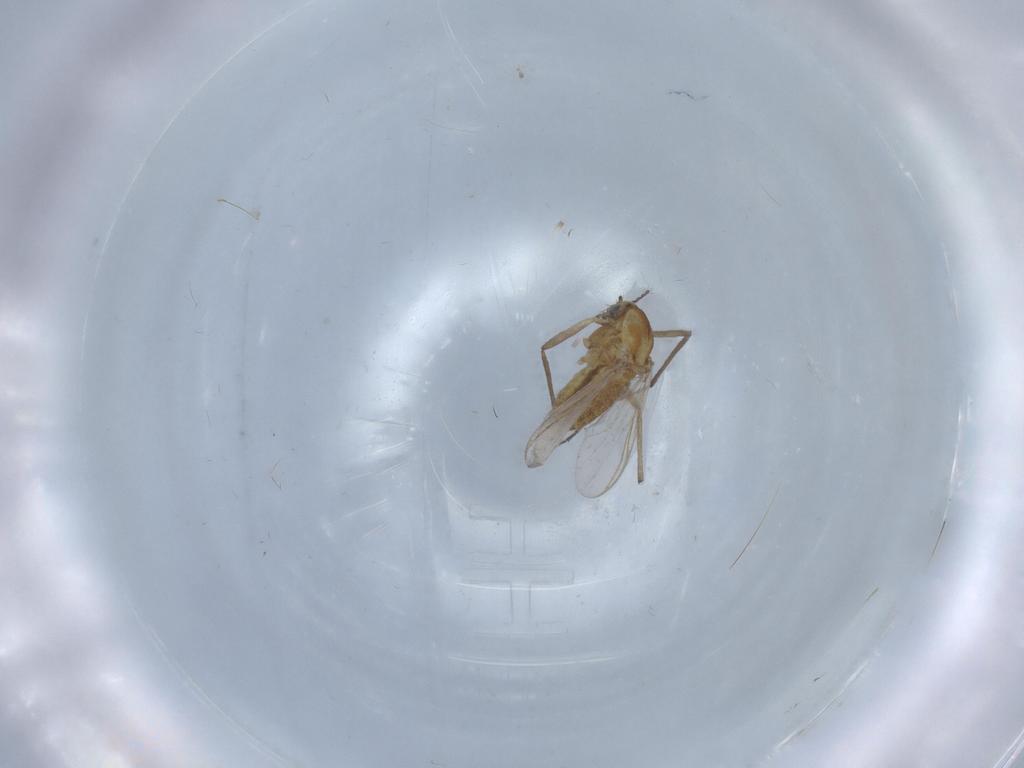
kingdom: Animalia
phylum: Arthropoda
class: Insecta
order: Diptera
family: Chironomidae
